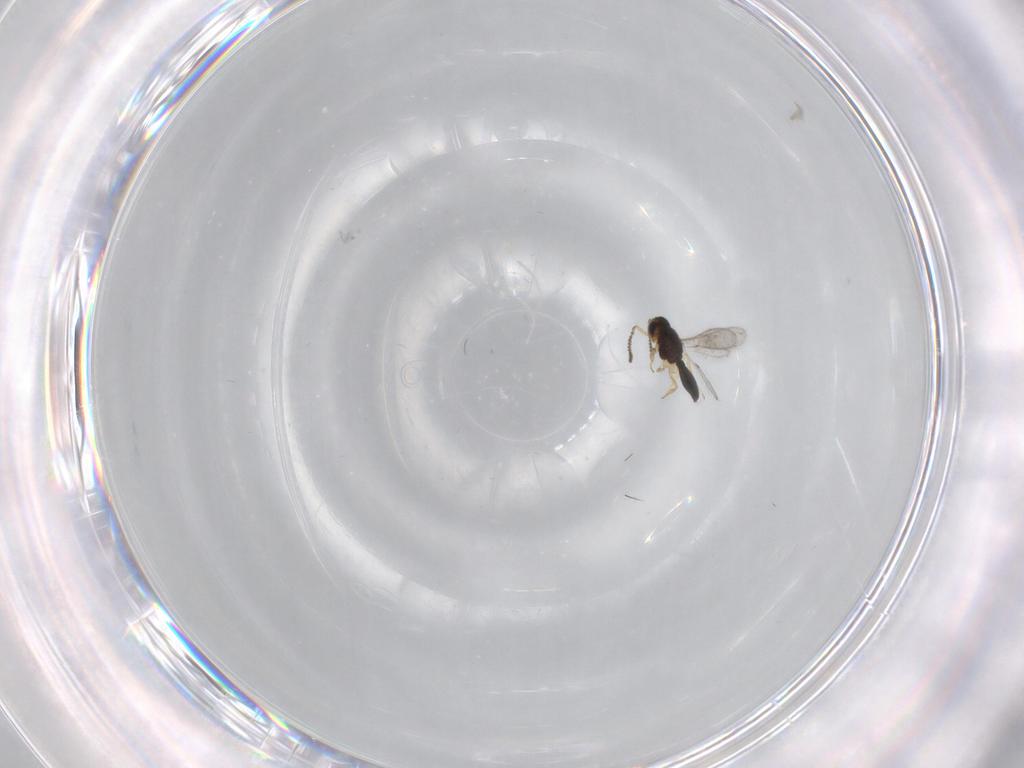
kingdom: Animalia
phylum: Arthropoda
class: Insecta
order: Hymenoptera
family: Scelionidae
